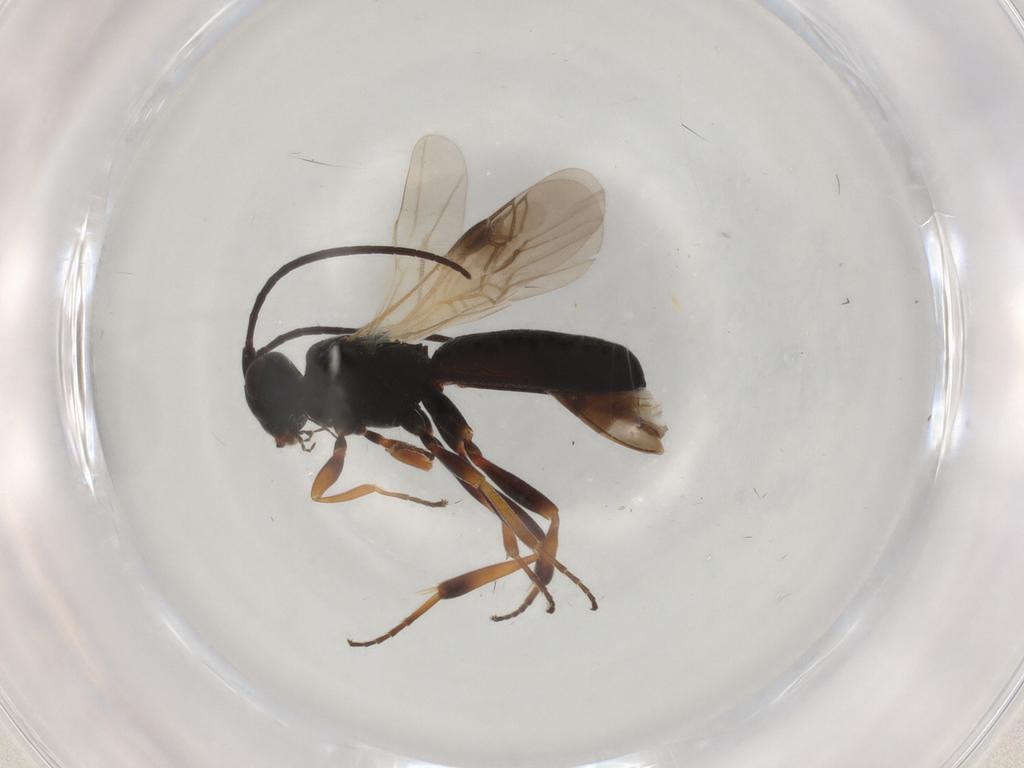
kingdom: Animalia
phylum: Arthropoda
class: Insecta
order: Hymenoptera
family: Braconidae
